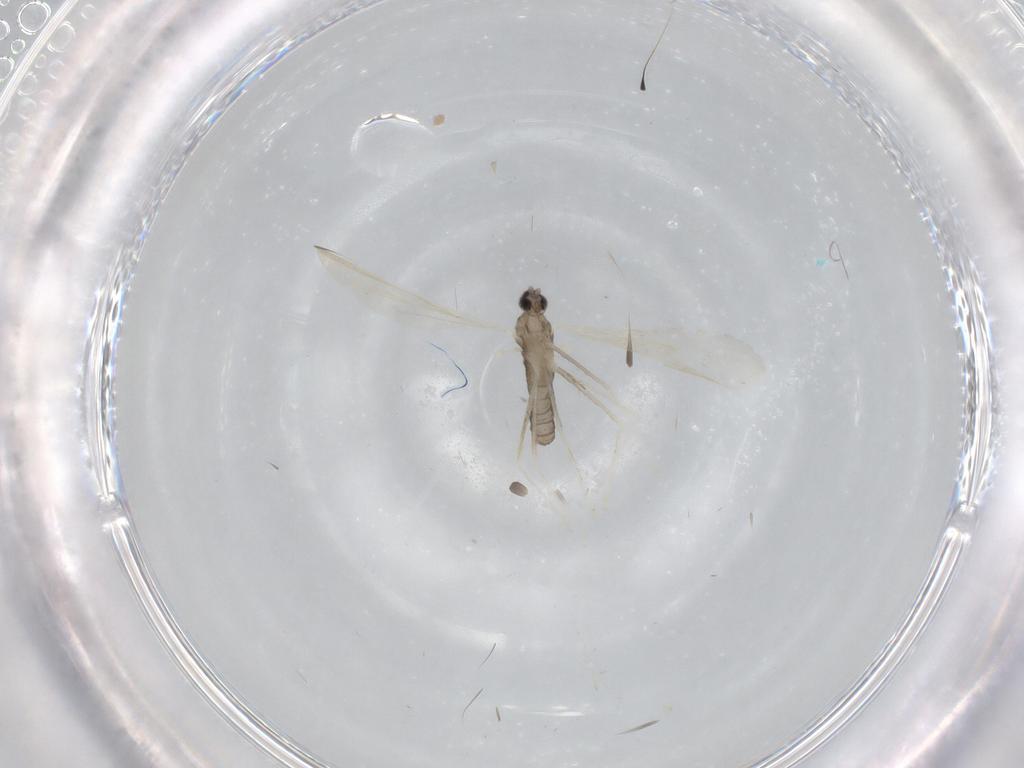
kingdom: Animalia
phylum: Arthropoda
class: Insecta
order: Diptera
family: Cecidomyiidae
